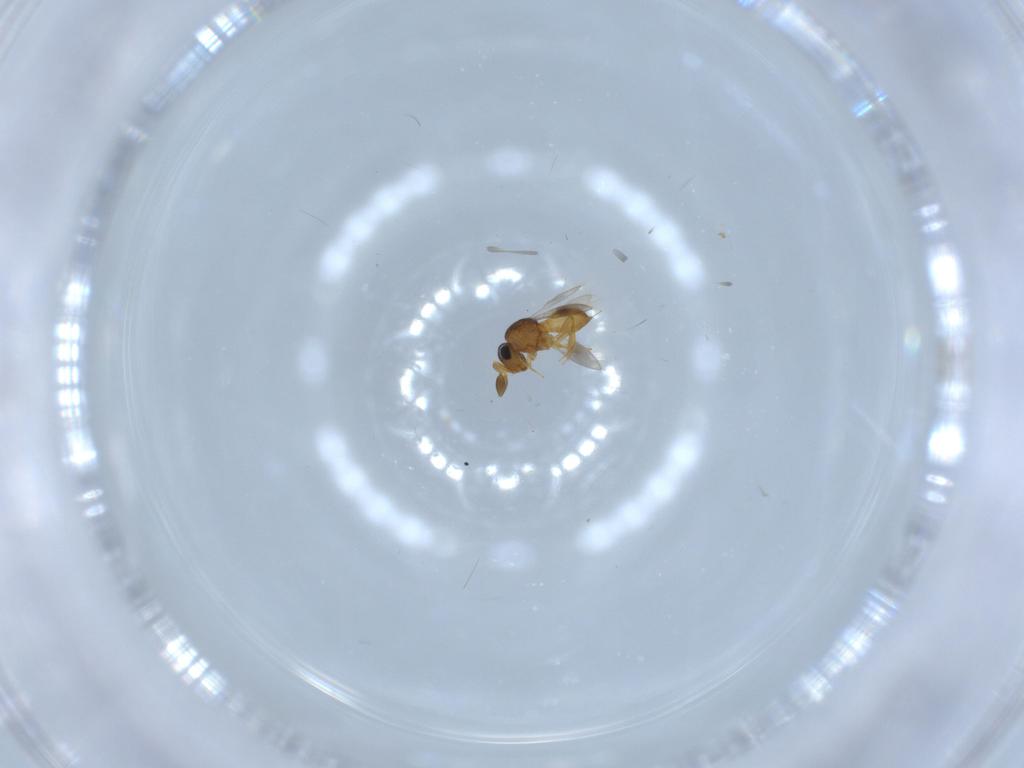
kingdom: Animalia
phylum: Arthropoda
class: Insecta
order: Hymenoptera
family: Scelionidae
